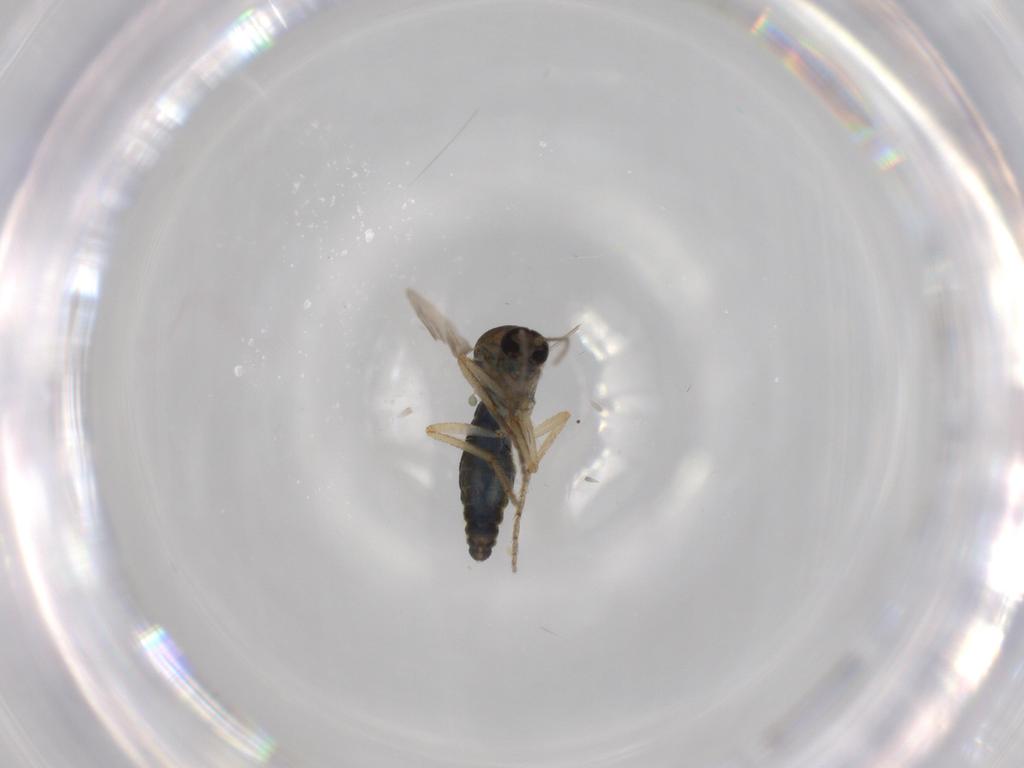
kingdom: Animalia
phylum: Arthropoda
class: Insecta
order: Diptera
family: Ceratopogonidae
